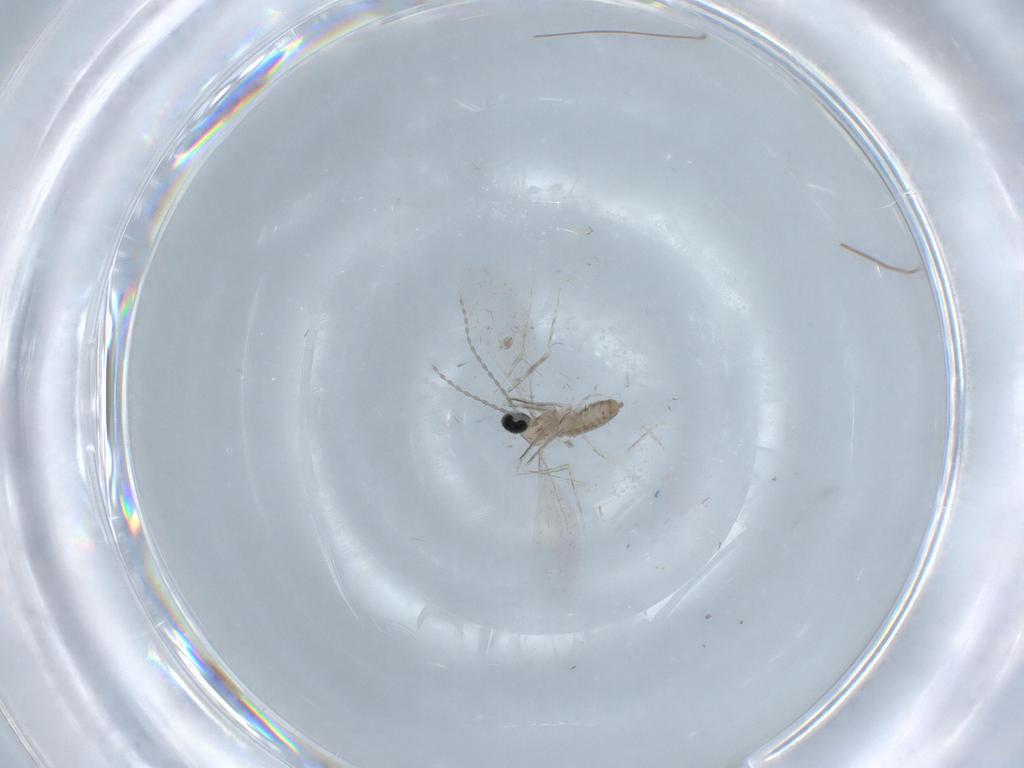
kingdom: Animalia
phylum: Arthropoda
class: Insecta
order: Diptera
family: Cecidomyiidae
